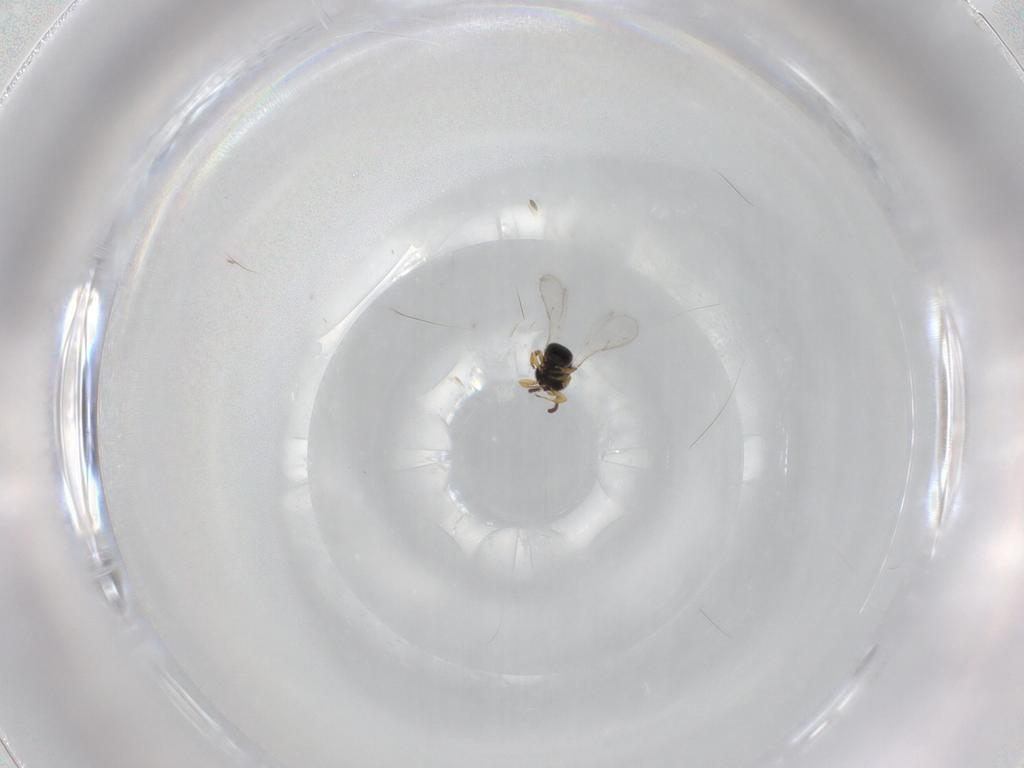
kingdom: Animalia
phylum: Arthropoda
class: Insecta
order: Hymenoptera
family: Scelionidae
